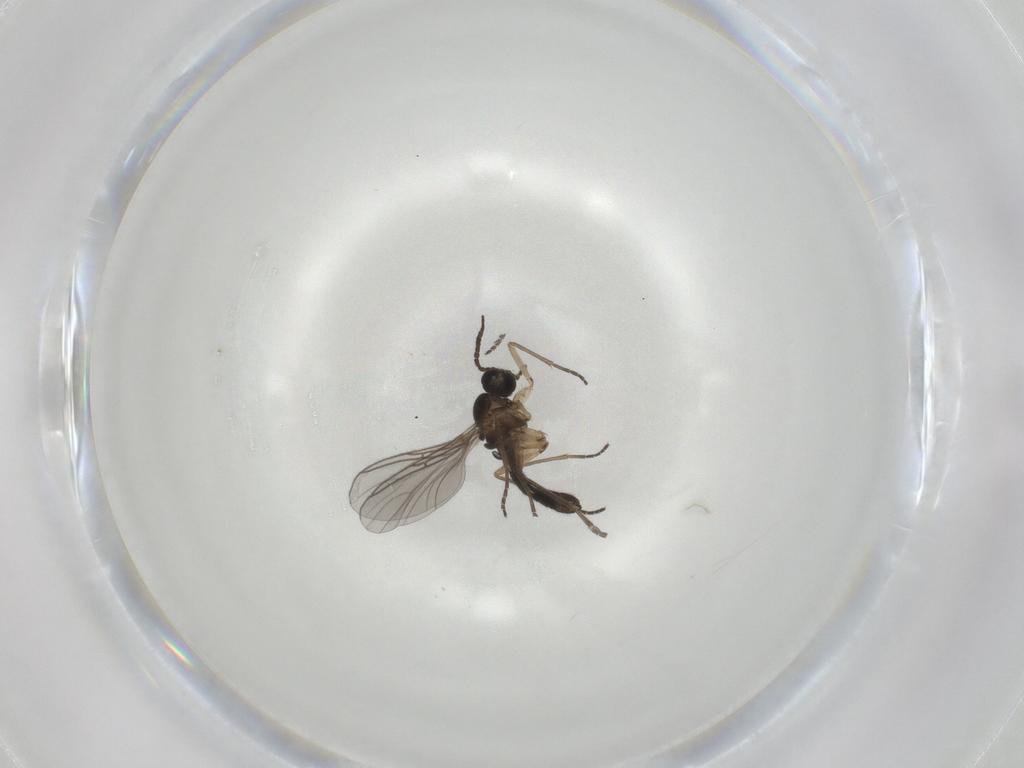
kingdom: Animalia
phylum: Arthropoda
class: Insecta
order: Diptera
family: Sciaridae
